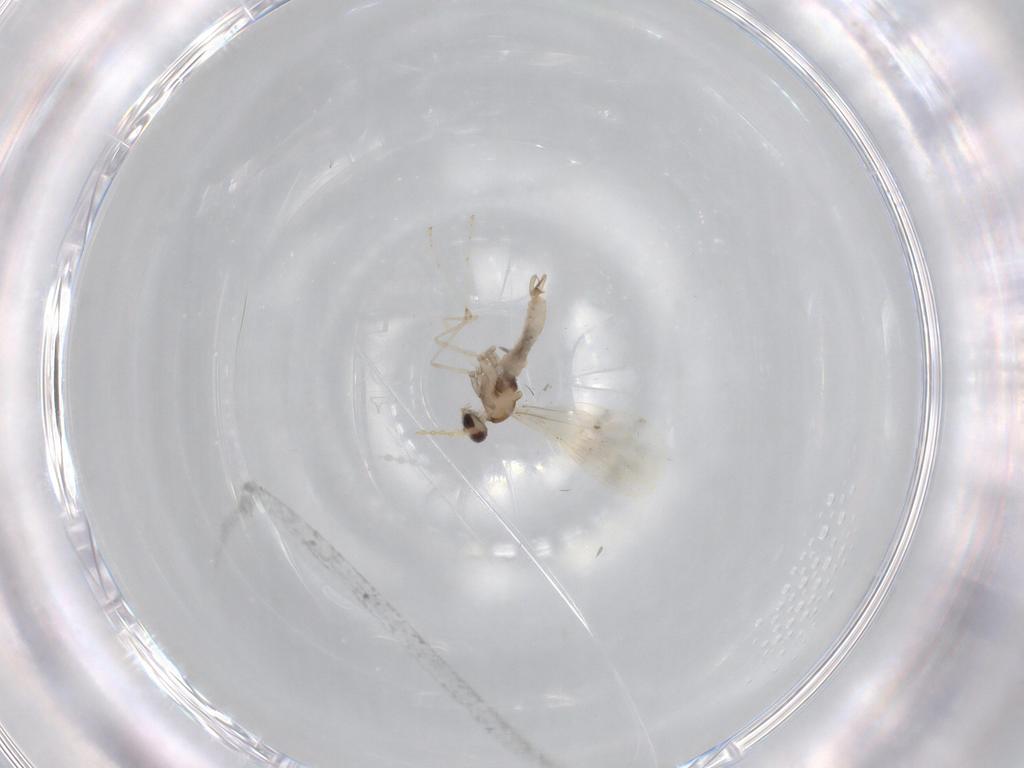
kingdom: Animalia
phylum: Arthropoda
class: Insecta
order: Diptera
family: Cecidomyiidae
